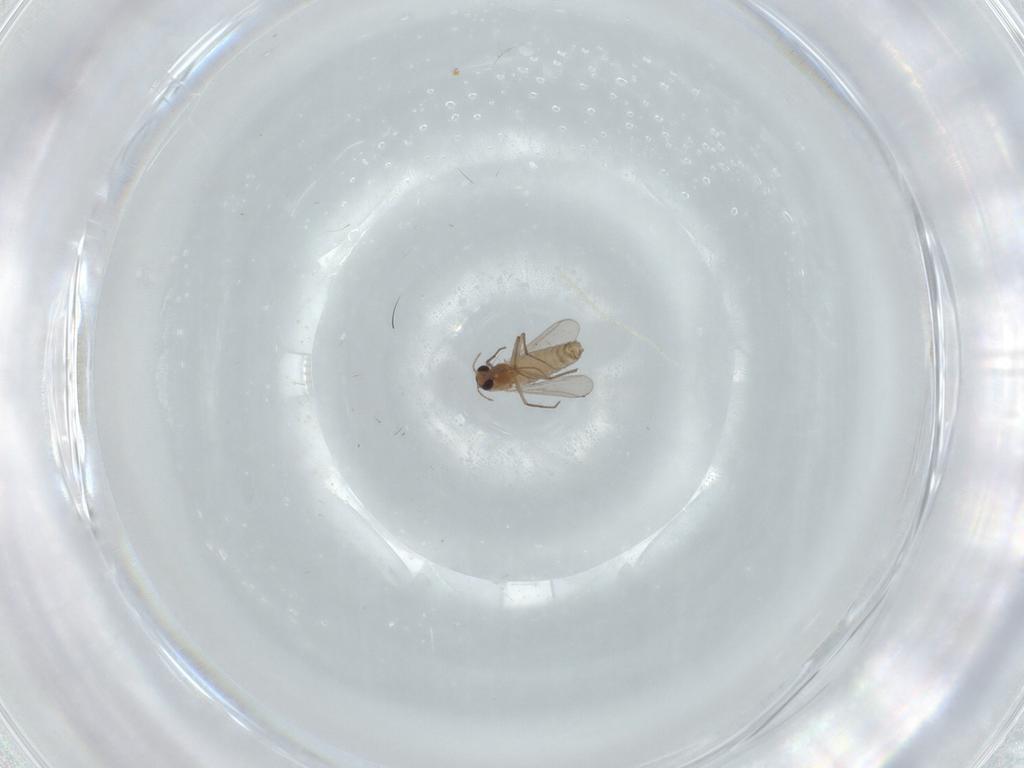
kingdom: Animalia
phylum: Arthropoda
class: Insecta
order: Diptera
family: Chironomidae
